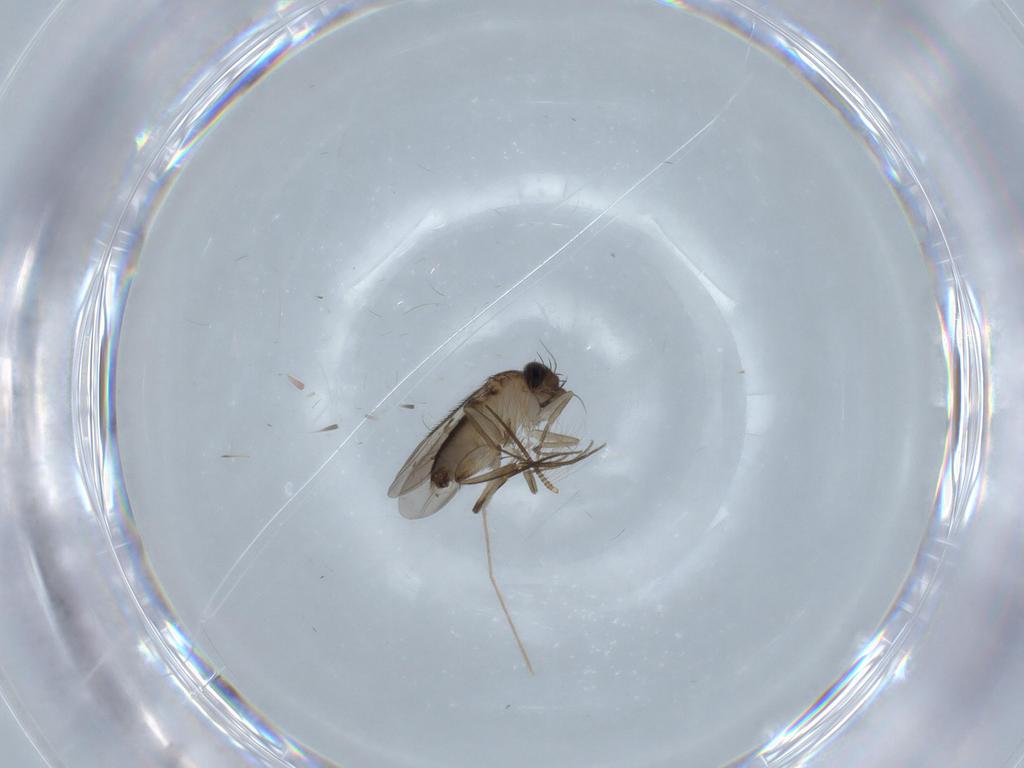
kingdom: Animalia
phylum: Arthropoda
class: Insecta
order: Diptera
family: Phoridae
